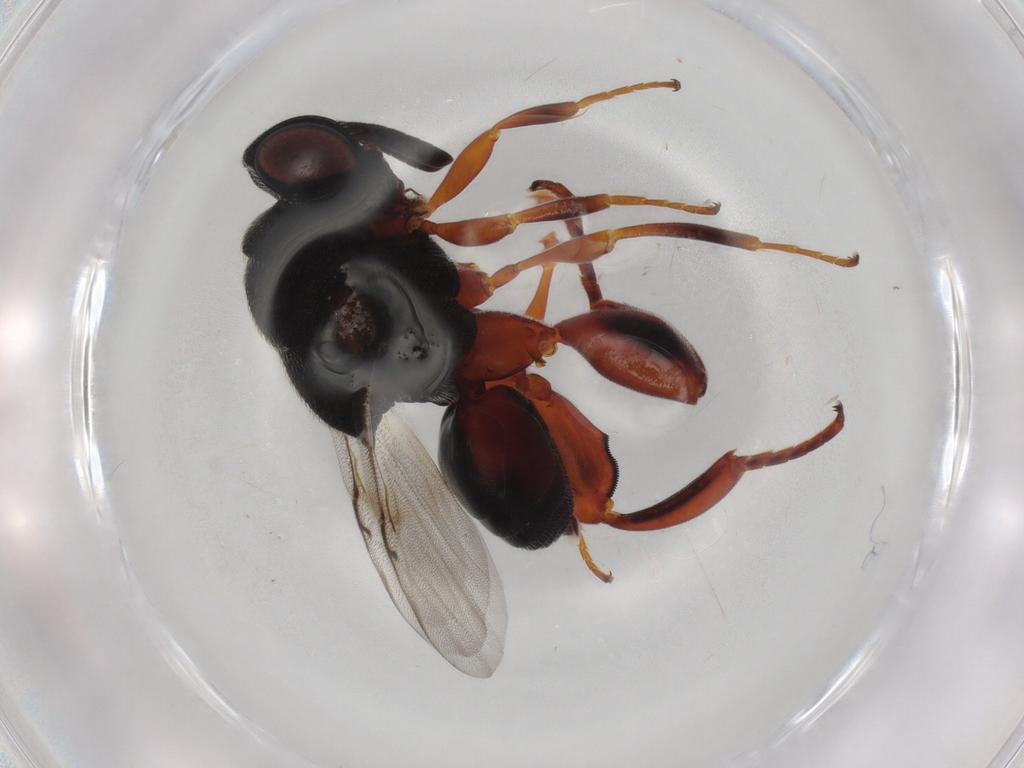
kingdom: Animalia
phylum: Arthropoda
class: Insecta
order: Hymenoptera
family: Chalcididae
